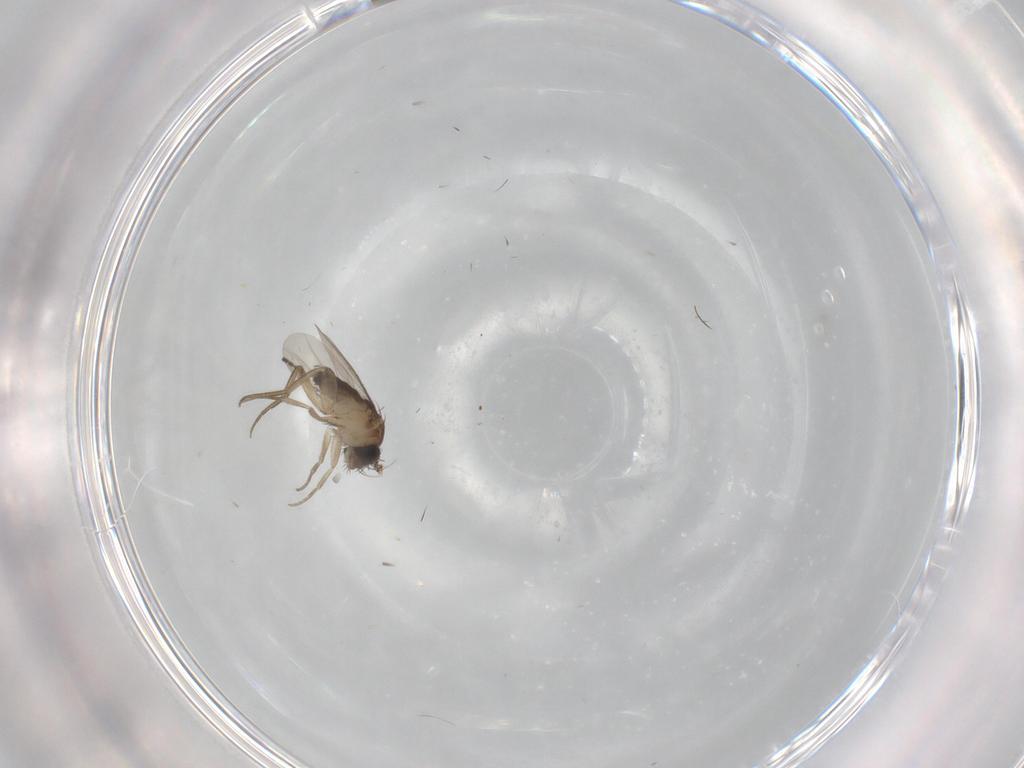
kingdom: Animalia
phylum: Arthropoda
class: Insecta
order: Diptera
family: Phoridae
